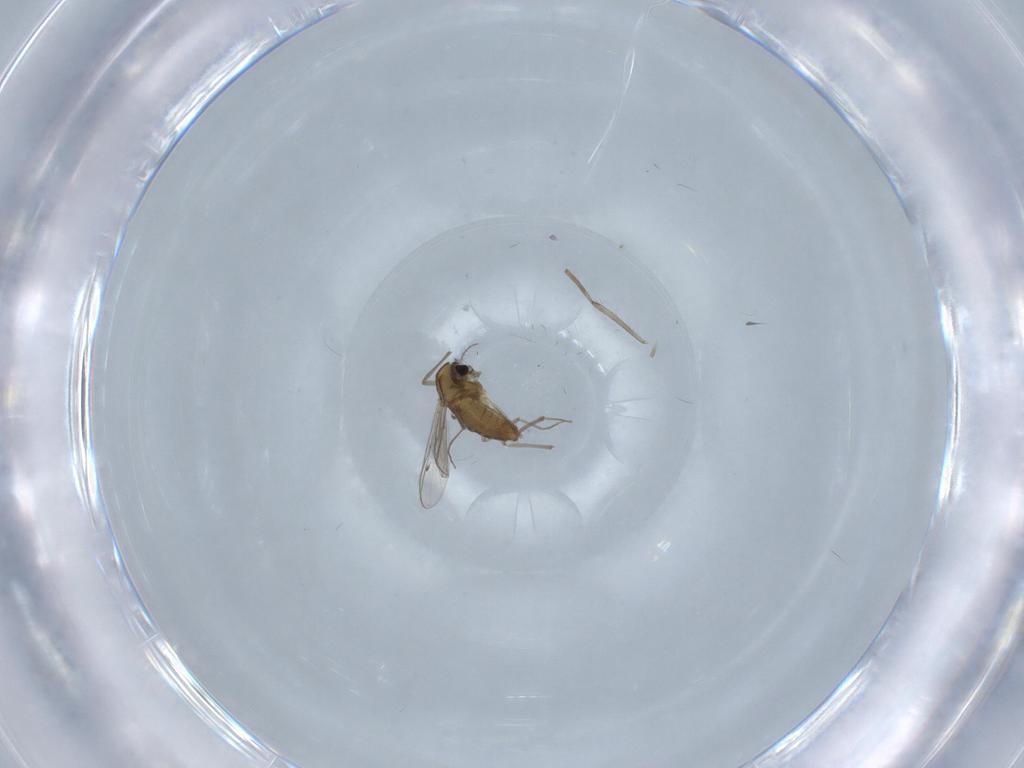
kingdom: Animalia
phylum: Arthropoda
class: Insecta
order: Diptera
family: Chironomidae
